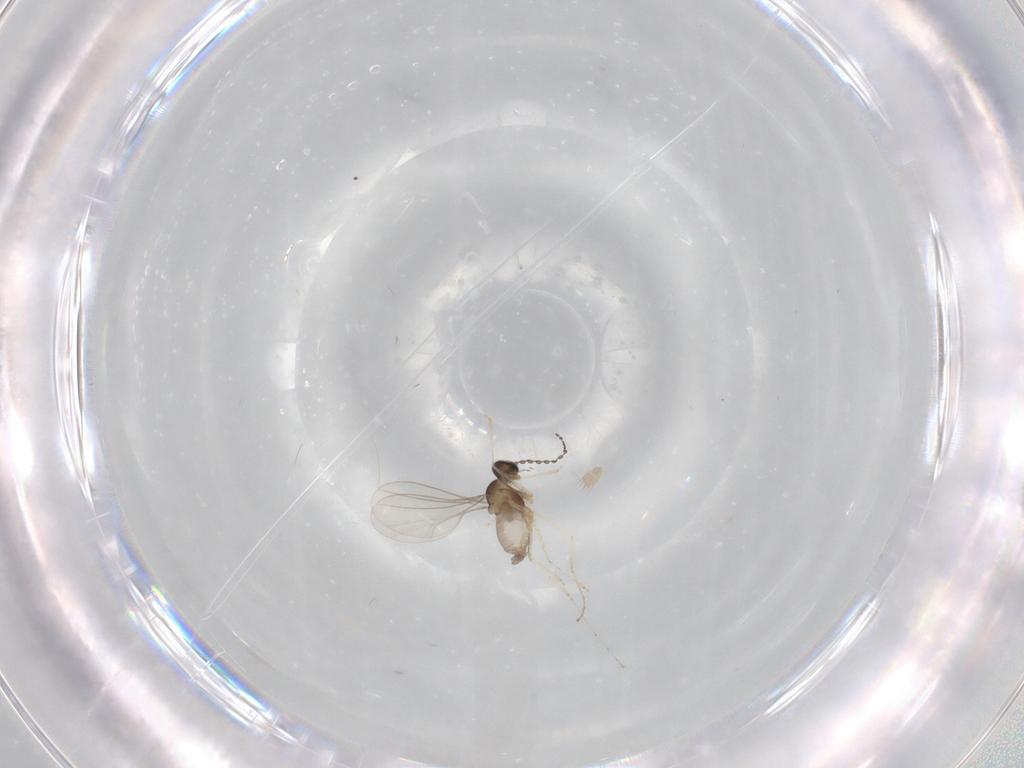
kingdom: Animalia
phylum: Arthropoda
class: Insecta
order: Diptera
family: Cecidomyiidae
